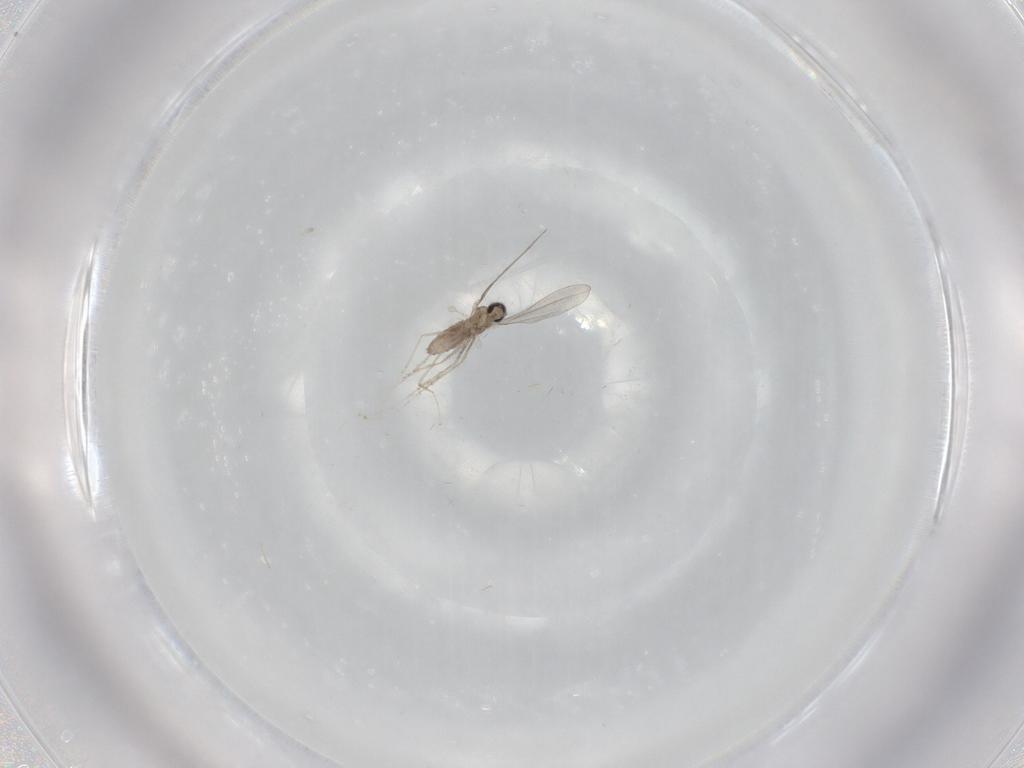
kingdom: Animalia
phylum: Arthropoda
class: Insecta
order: Diptera
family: Cecidomyiidae
